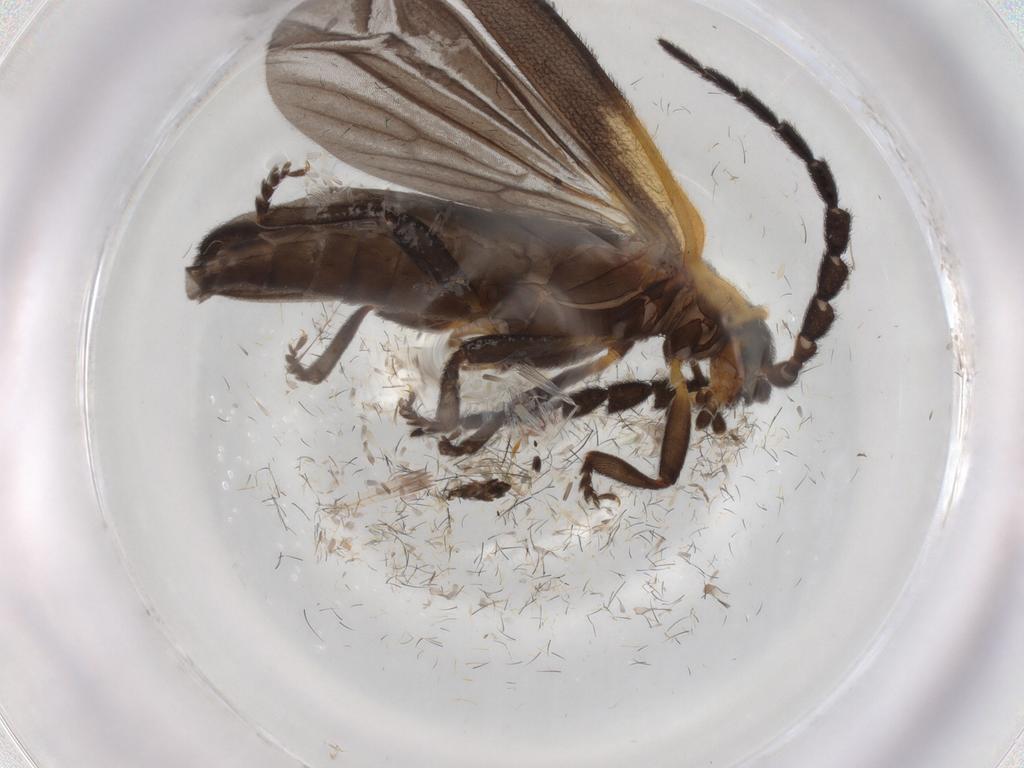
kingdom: Animalia
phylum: Arthropoda
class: Insecta
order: Coleoptera
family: Lycidae
